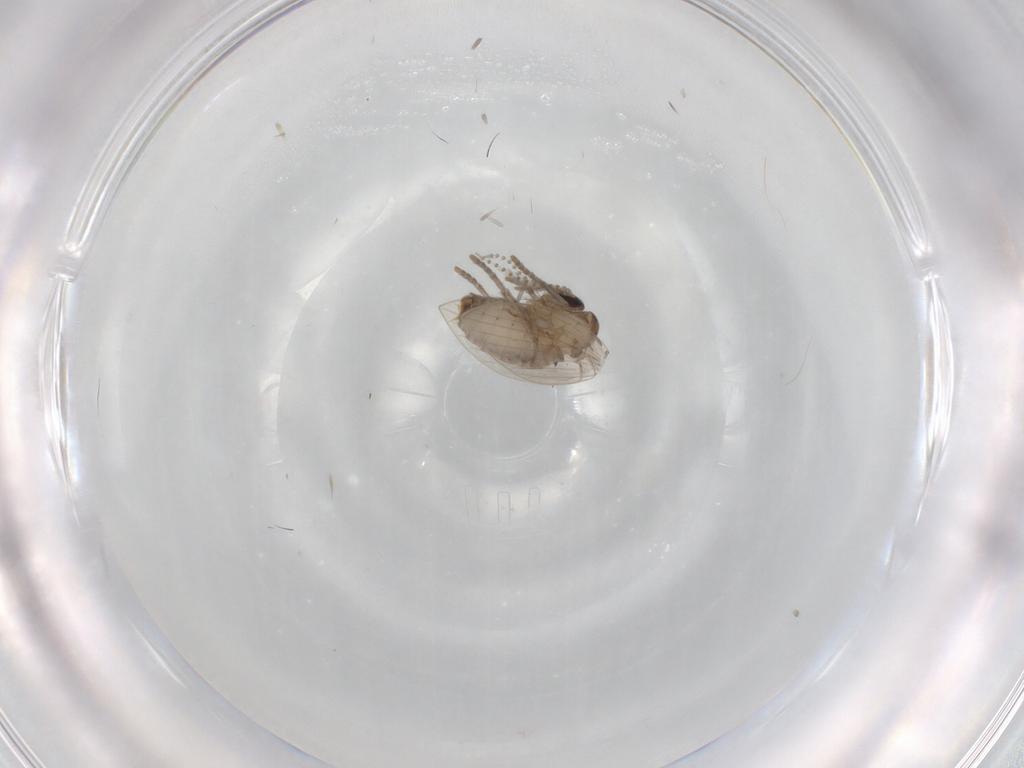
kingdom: Animalia
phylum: Arthropoda
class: Insecta
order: Diptera
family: Psychodidae
